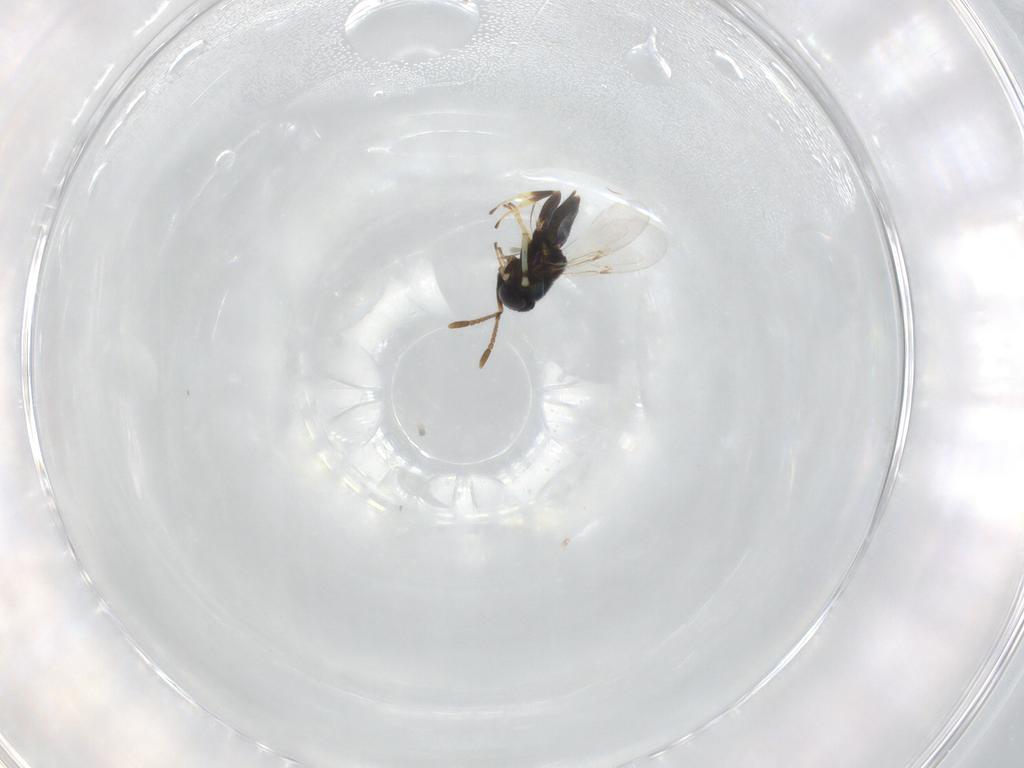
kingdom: Animalia
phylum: Arthropoda
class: Insecta
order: Hymenoptera
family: Encyrtidae
